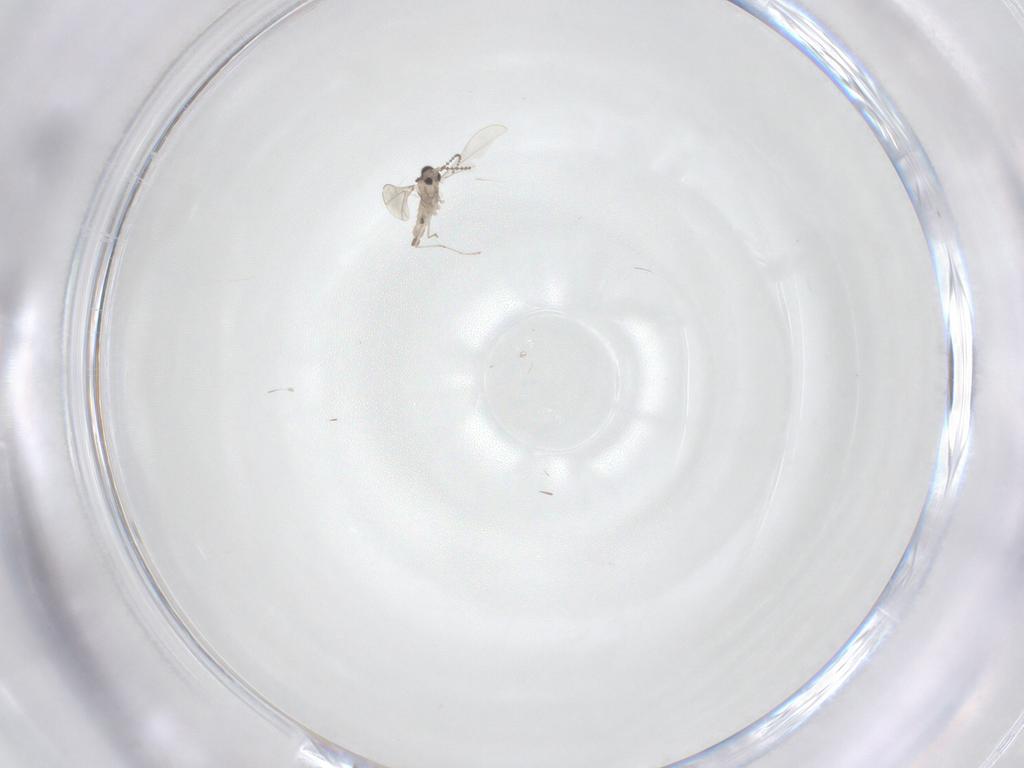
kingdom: Animalia
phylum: Arthropoda
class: Insecta
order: Diptera
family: Cecidomyiidae
